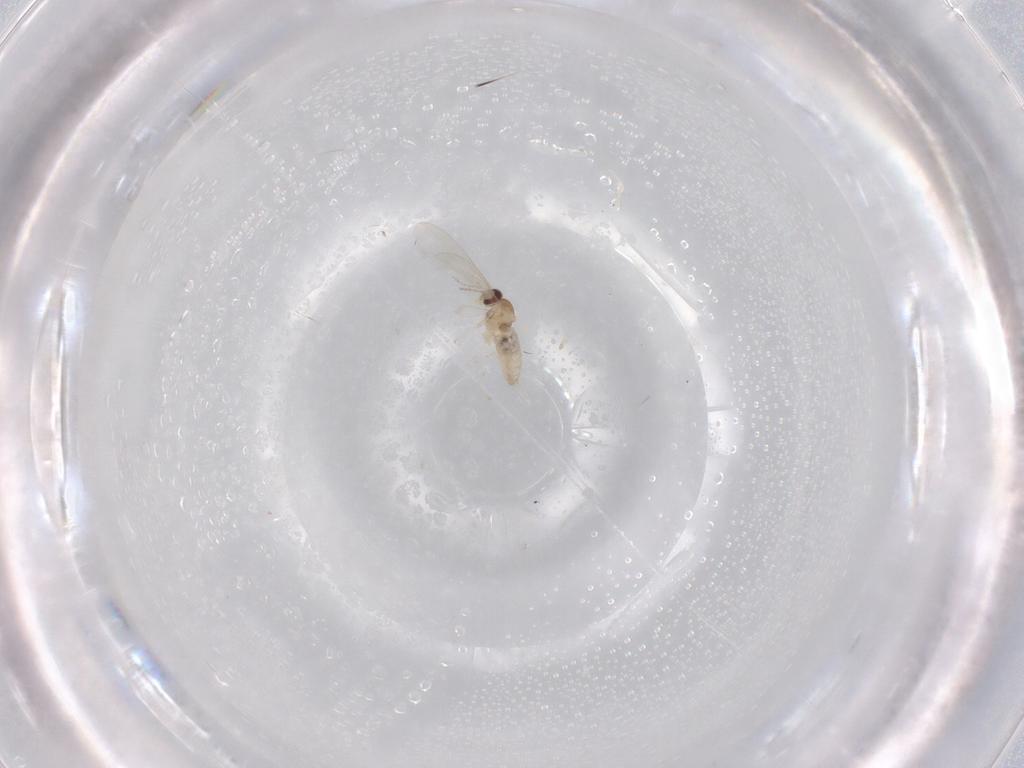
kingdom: Animalia
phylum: Arthropoda
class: Insecta
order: Diptera
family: Cecidomyiidae
